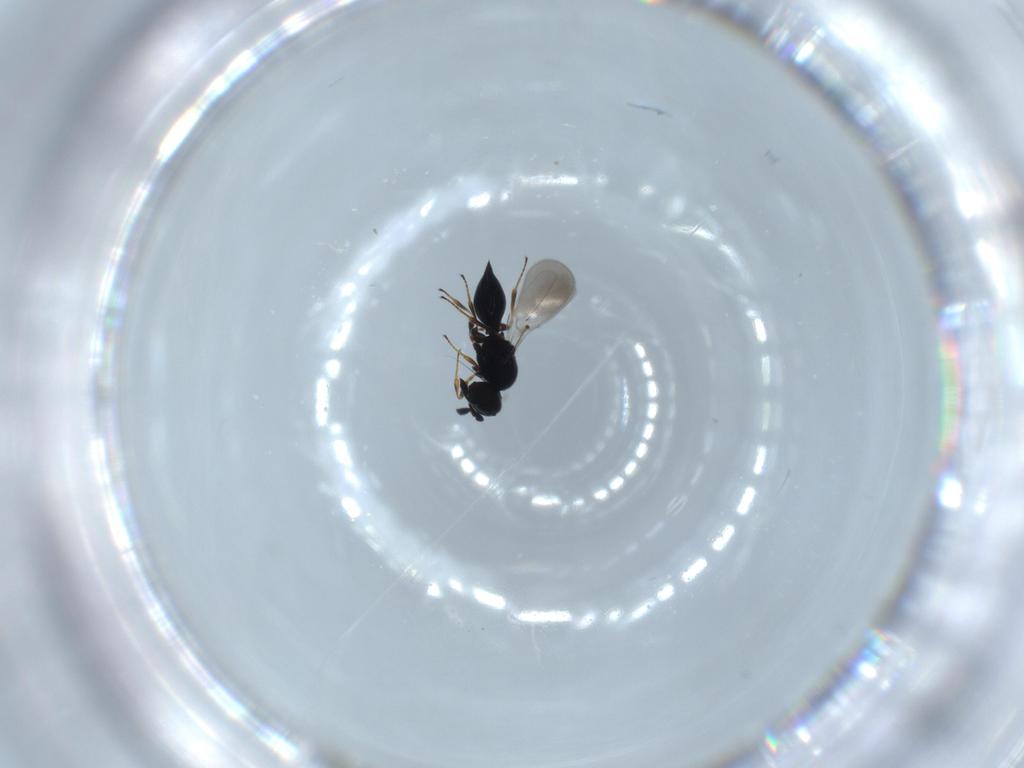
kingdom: Animalia
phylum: Arthropoda
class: Insecta
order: Hymenoptera
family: Platygastridae
